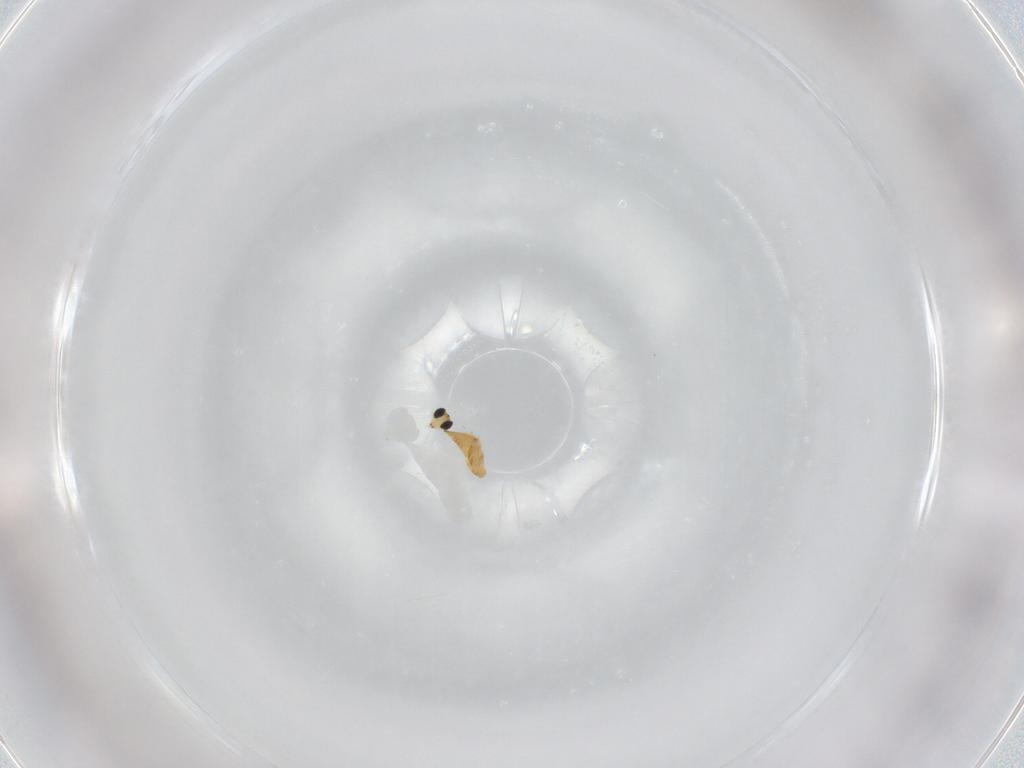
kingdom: Animalia
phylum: Arthropoda
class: Insecta
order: Hymenoptera
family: Trichogrammatidae
